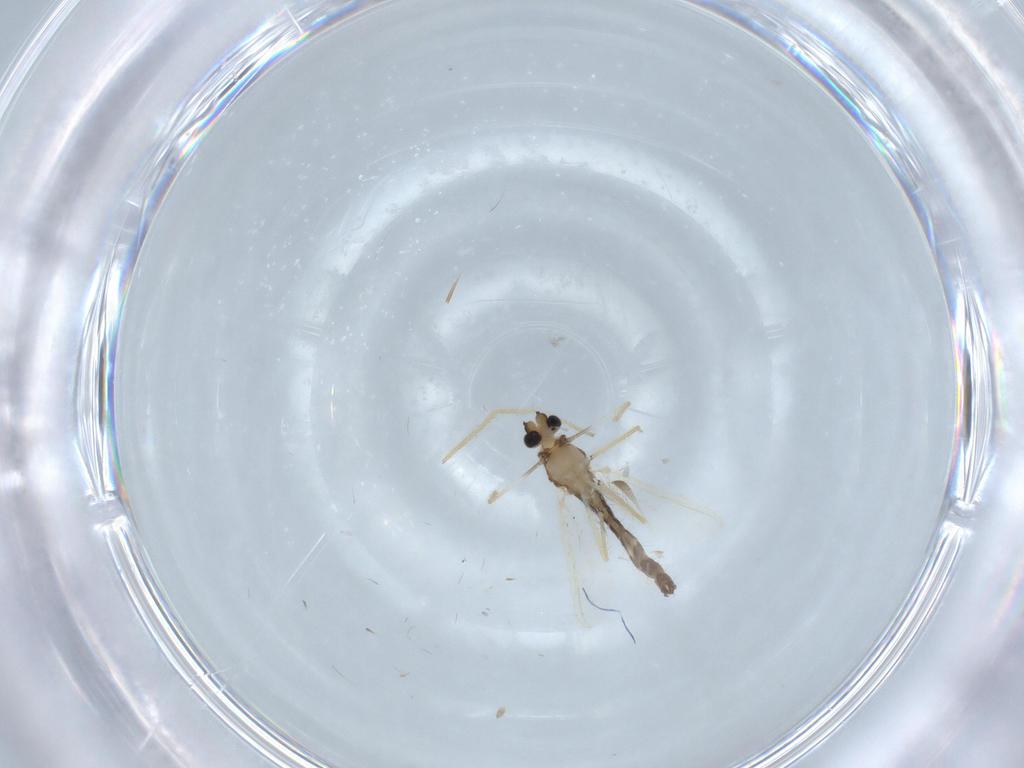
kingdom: Animalia
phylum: Arthropoda
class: Insecta
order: Diptera
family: Chironomidae
